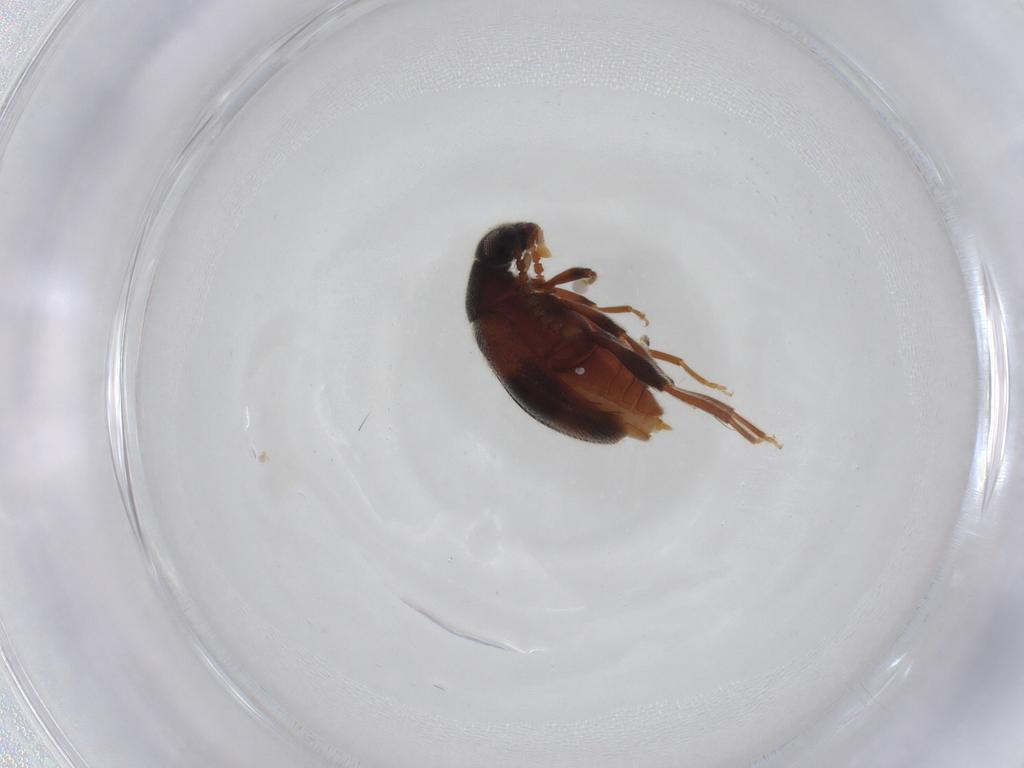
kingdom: Animalia
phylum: Arthropoda
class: Insecta
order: Coleoptera
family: Aderidae
